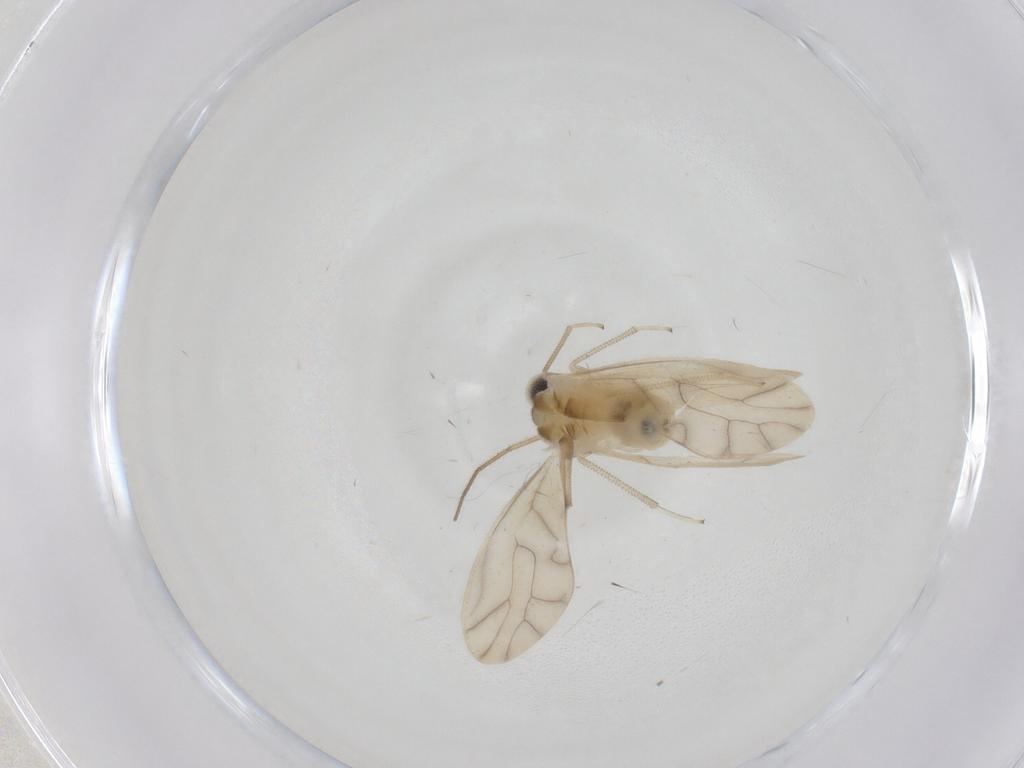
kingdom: Animalia
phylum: Arthropoda
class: Insecta
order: Psocodea
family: Caeciliusidae
